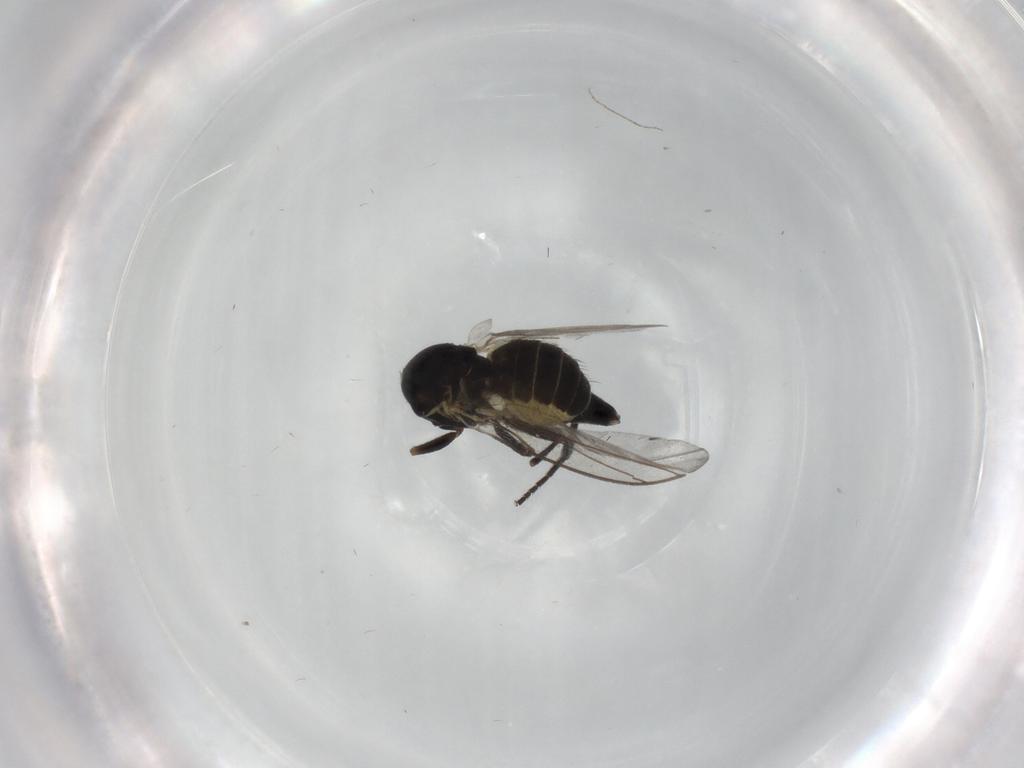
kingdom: Animalia
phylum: Arthropoda
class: Insecta
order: Diptera
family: Agromyzidae
